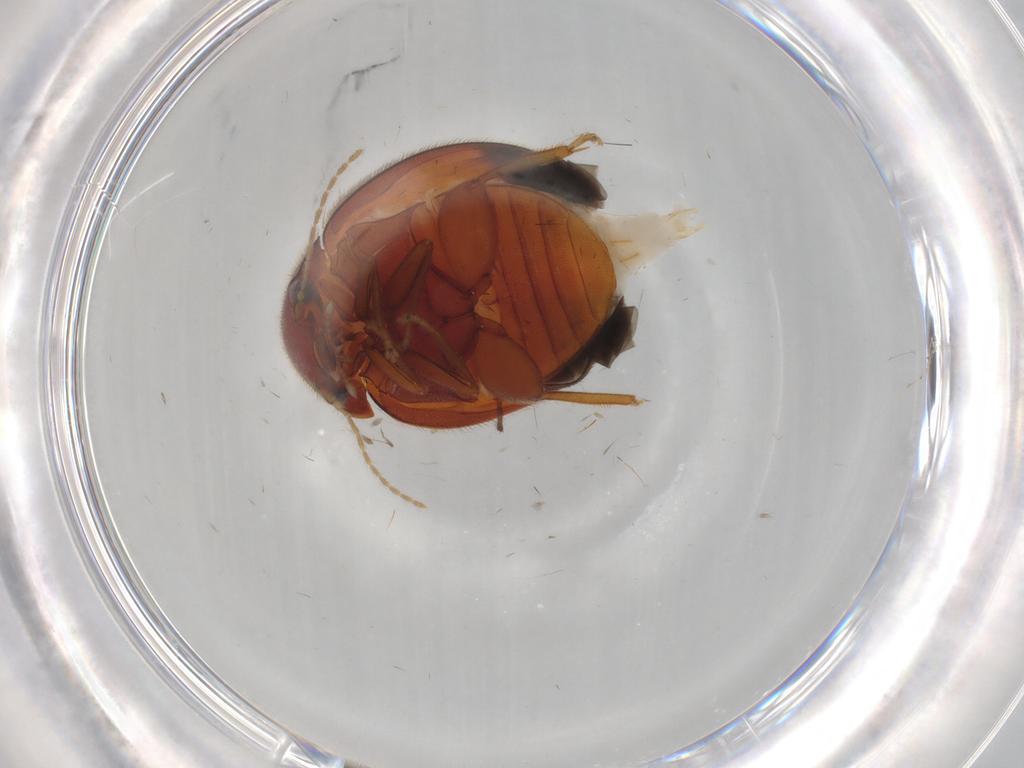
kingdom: Animalia
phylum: Arthropoda
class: Insecta
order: Coleoptera
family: Scirtidae
